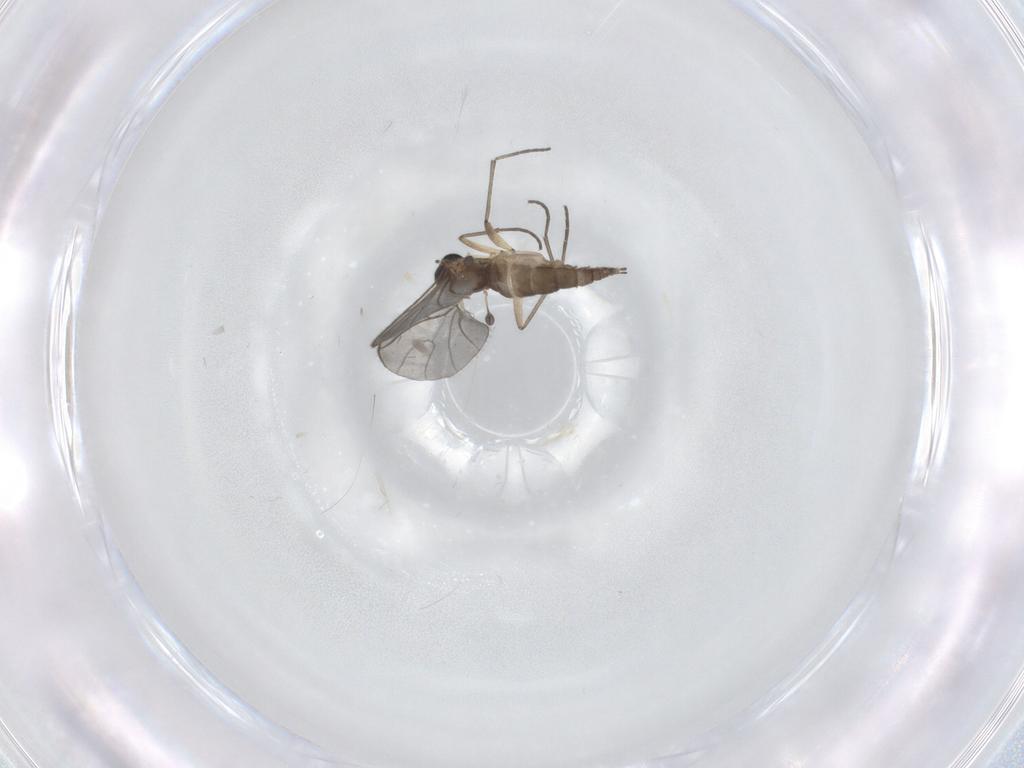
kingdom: Animalia
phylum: Arthropoda
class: Insecta
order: Diptera
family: Sciaridae
